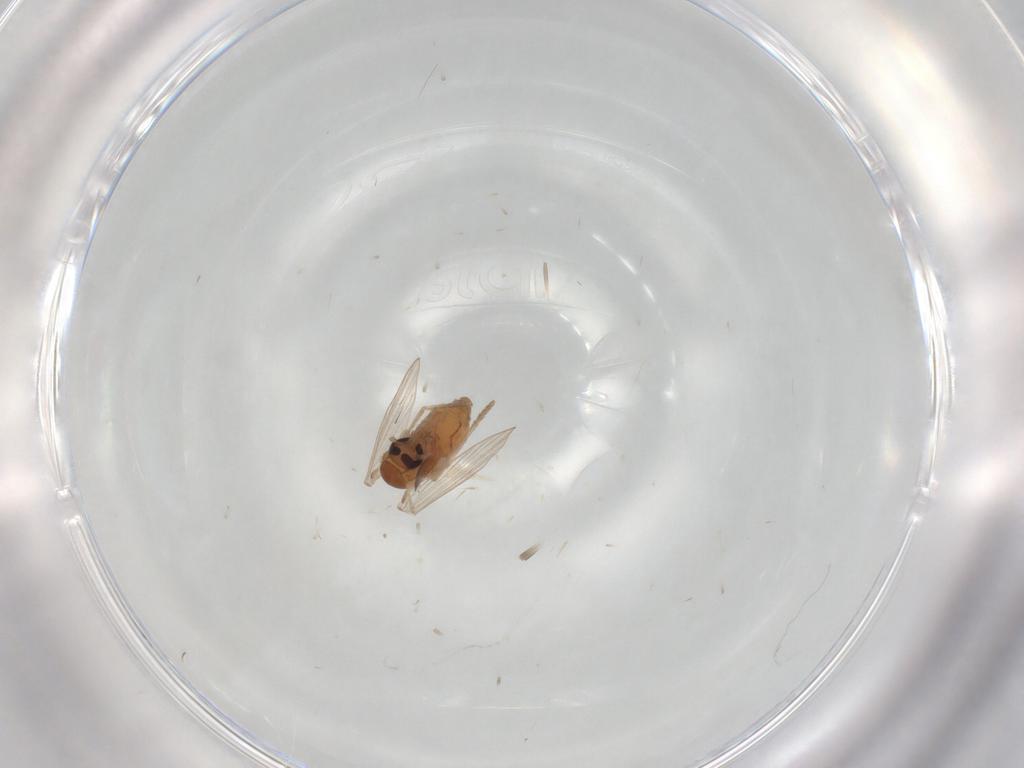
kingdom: Animalia
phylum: Arthropoda
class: Insecta
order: Diptera
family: Psychodidae
